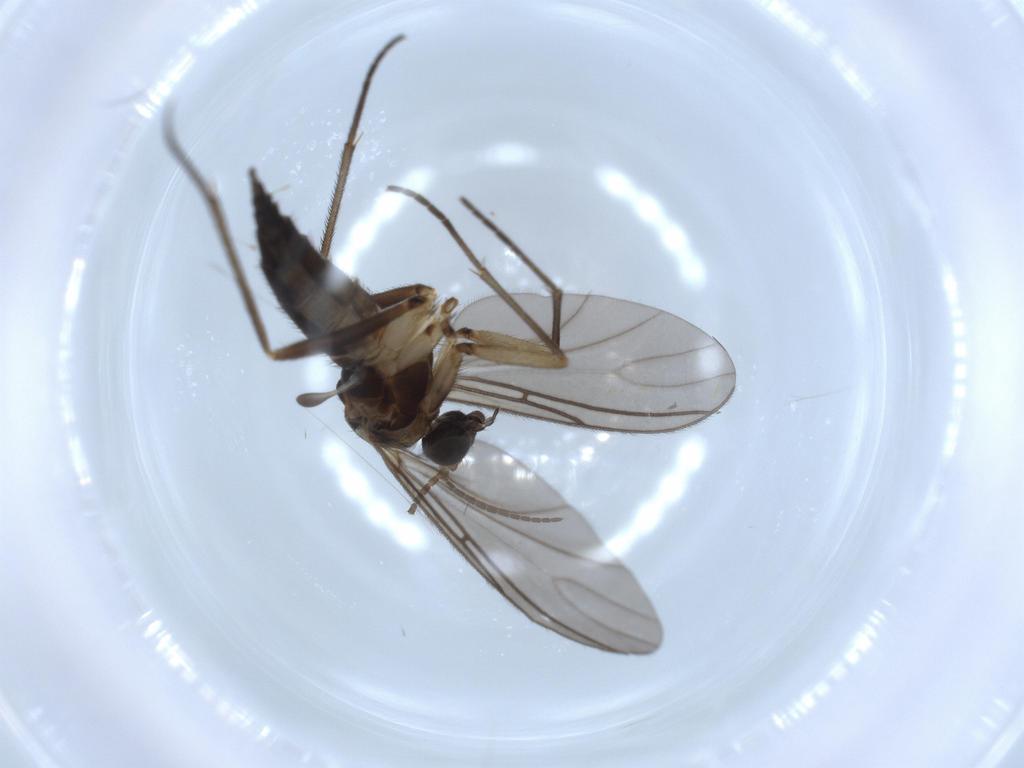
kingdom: Animalia
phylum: Arthropoda
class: Insecta
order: Diptera
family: Sciaridae
